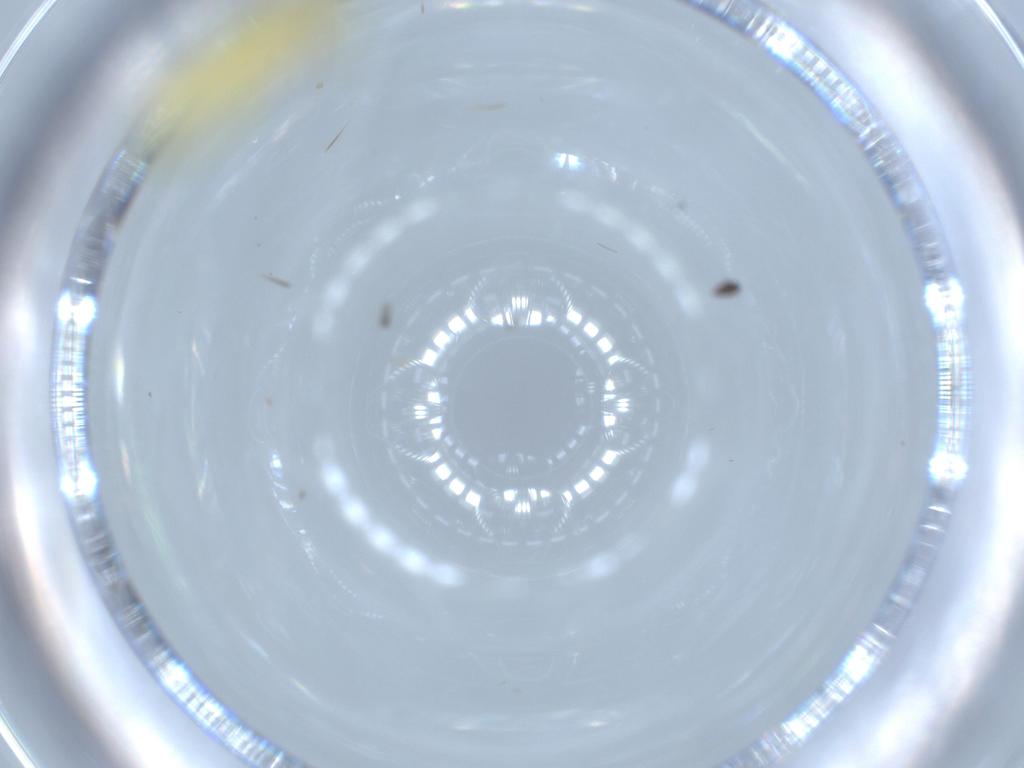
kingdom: Animalia
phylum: Arthropoda
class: Insecta
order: Hemiptera
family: Cicadellidae
